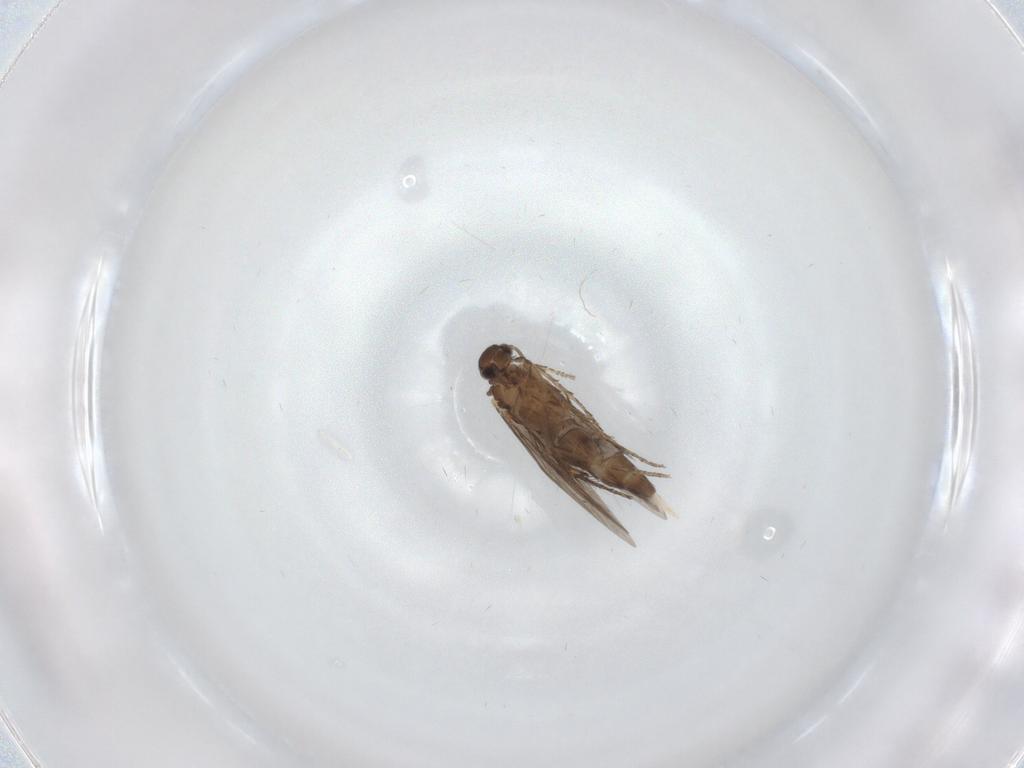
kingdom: Animalia
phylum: Arthropoda
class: Insecta
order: Trichoptera
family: Hydroptilidae
